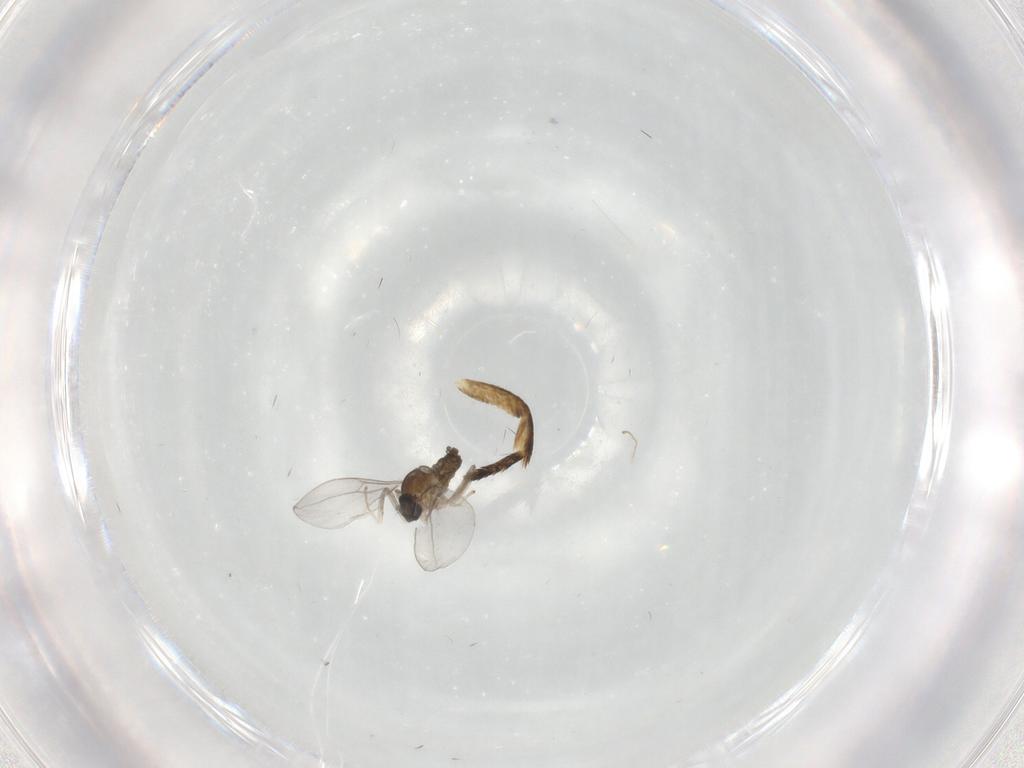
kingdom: Animalia
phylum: Arthropoda
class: Insecta
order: Diptera
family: Cecidomyiidae
